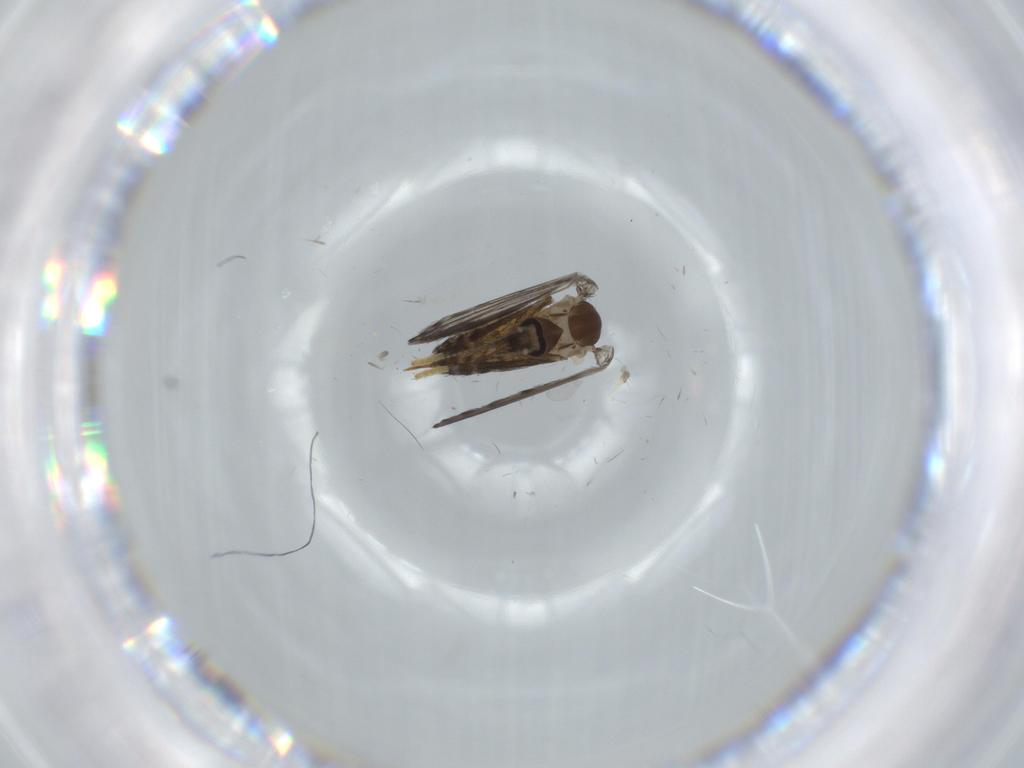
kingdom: Animalia
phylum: Arthropoda
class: Insecta
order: Diptera
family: Psychodidae
